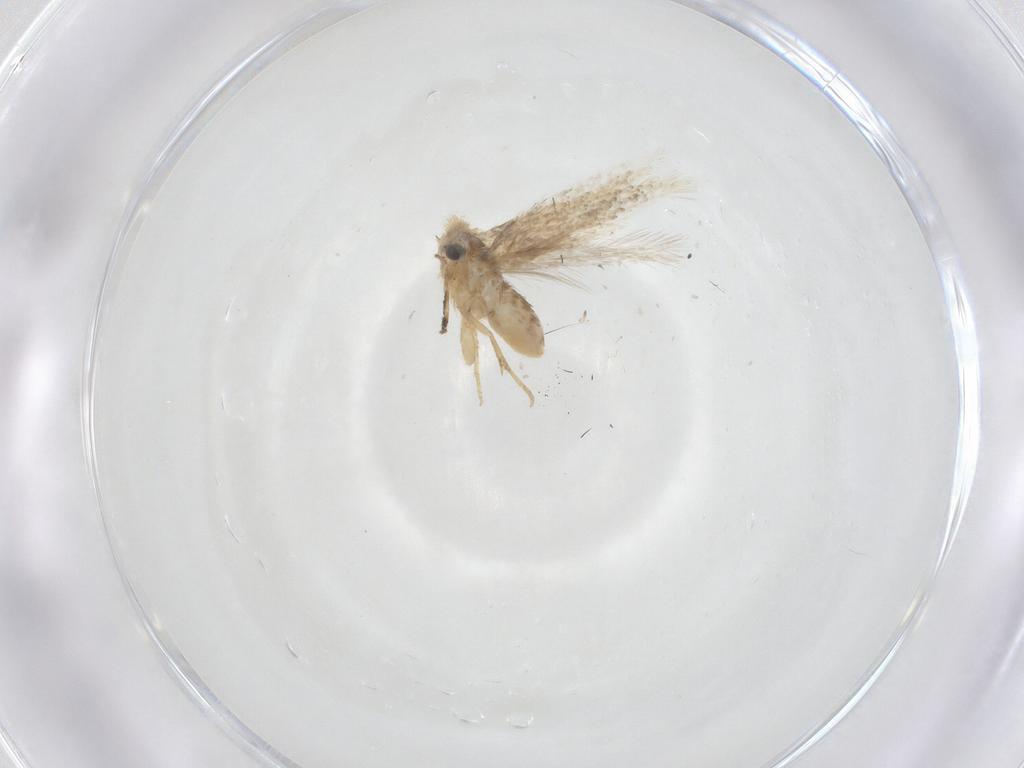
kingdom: Animalia
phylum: Arthropoda
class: Insecta
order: Lepidoptera
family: Nepticulidae
